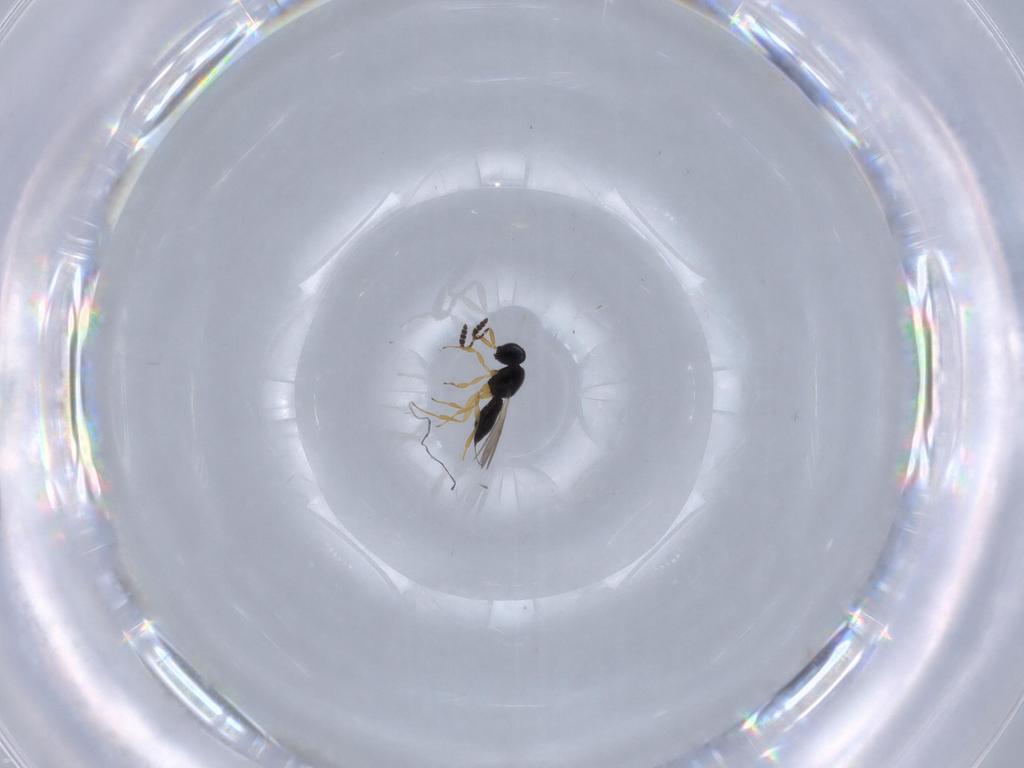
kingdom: Animalia
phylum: Arthropoda
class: Insecta
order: Hymenoptera
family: Scelionidae
